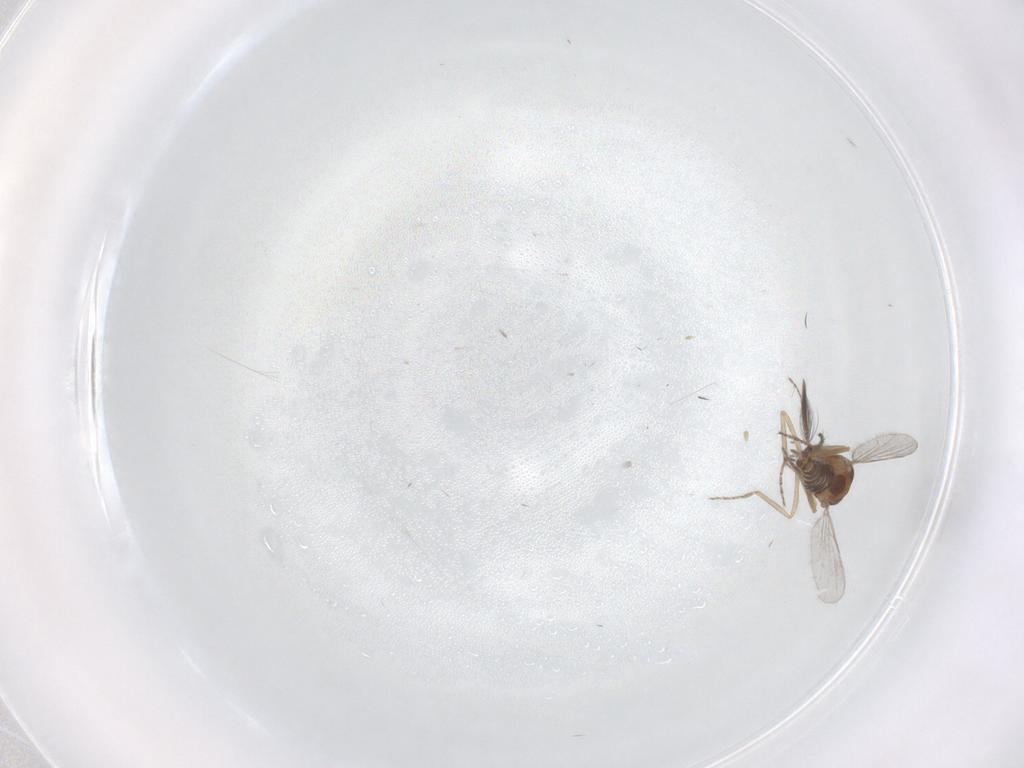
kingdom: Animalia
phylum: Arthropoda
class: Insecta
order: Diptera
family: Ceratopogonidae
